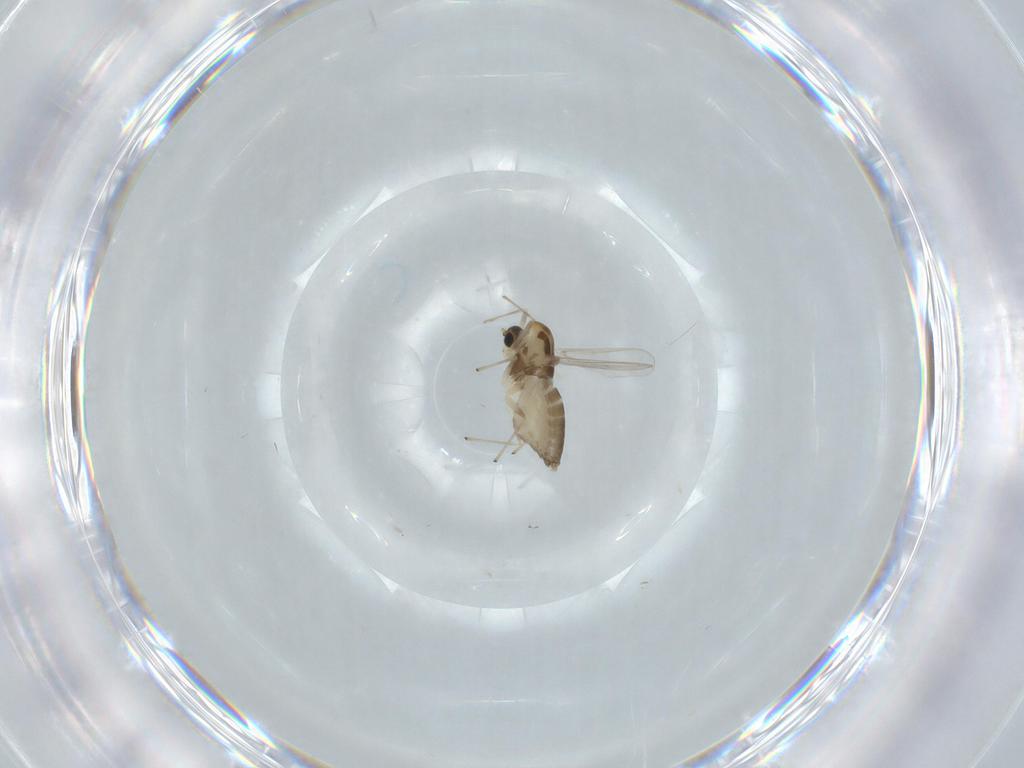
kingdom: Animalia
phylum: Arthropoda
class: Insecta
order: Diptera
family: Chironomidae
